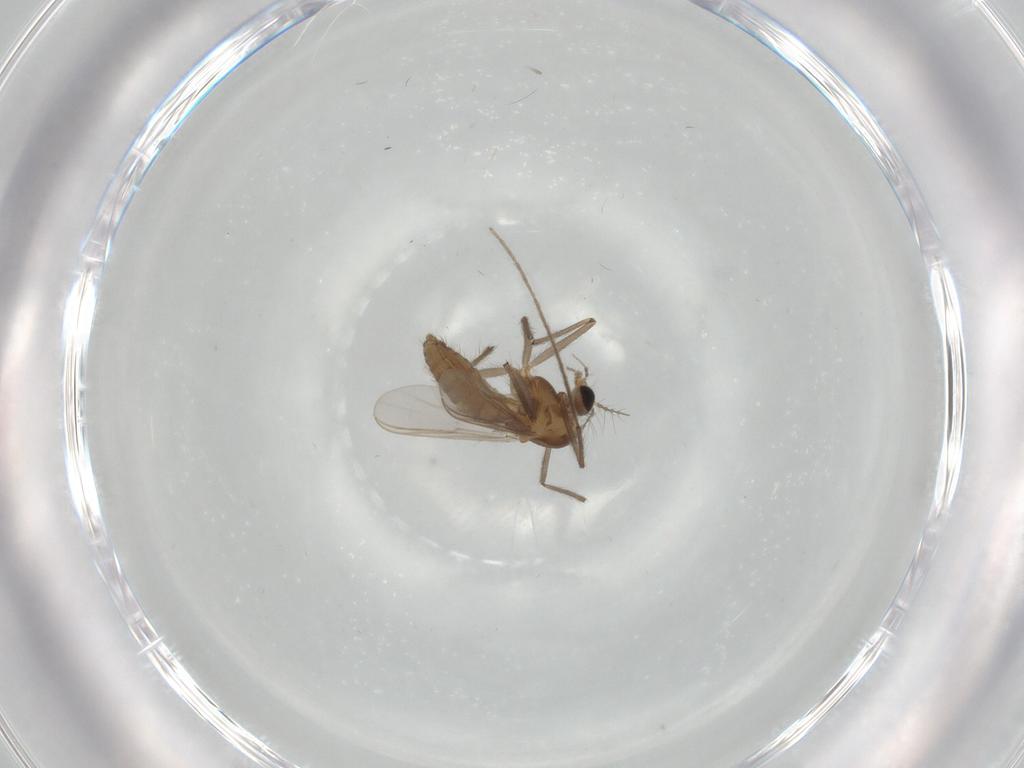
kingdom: Animalia
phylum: Arthropoda
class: Insecta
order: Diptera
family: Chironomidae
